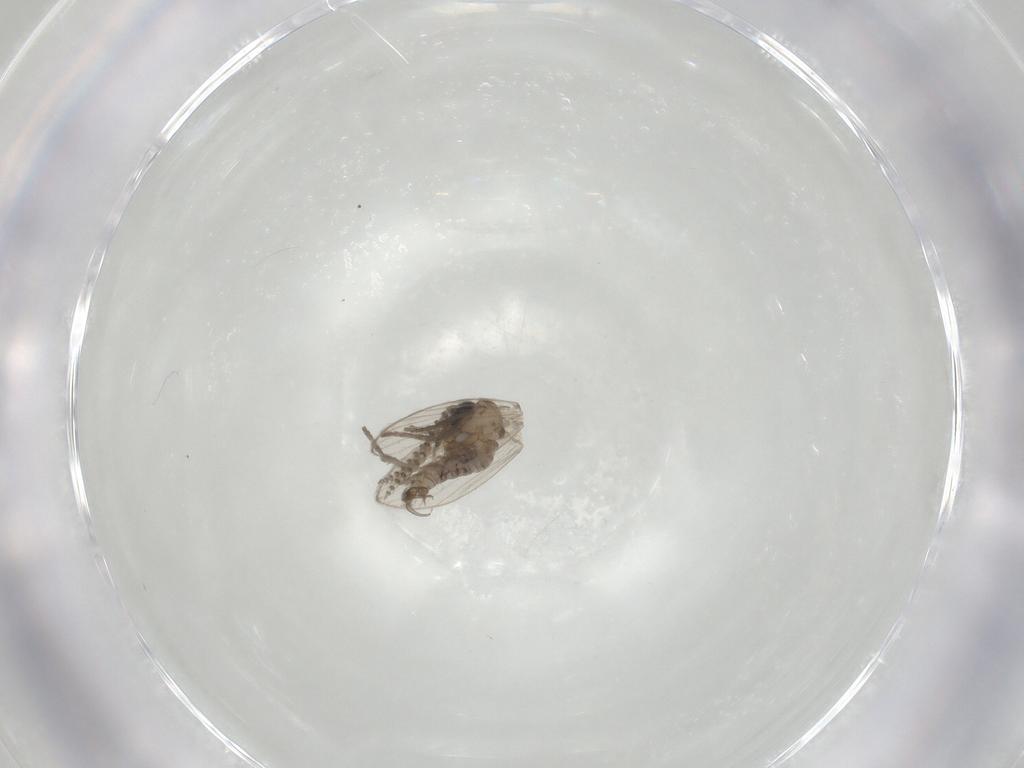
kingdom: Animalia
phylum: Arthropoda
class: Insecta
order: Diptera
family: Psychodidae
